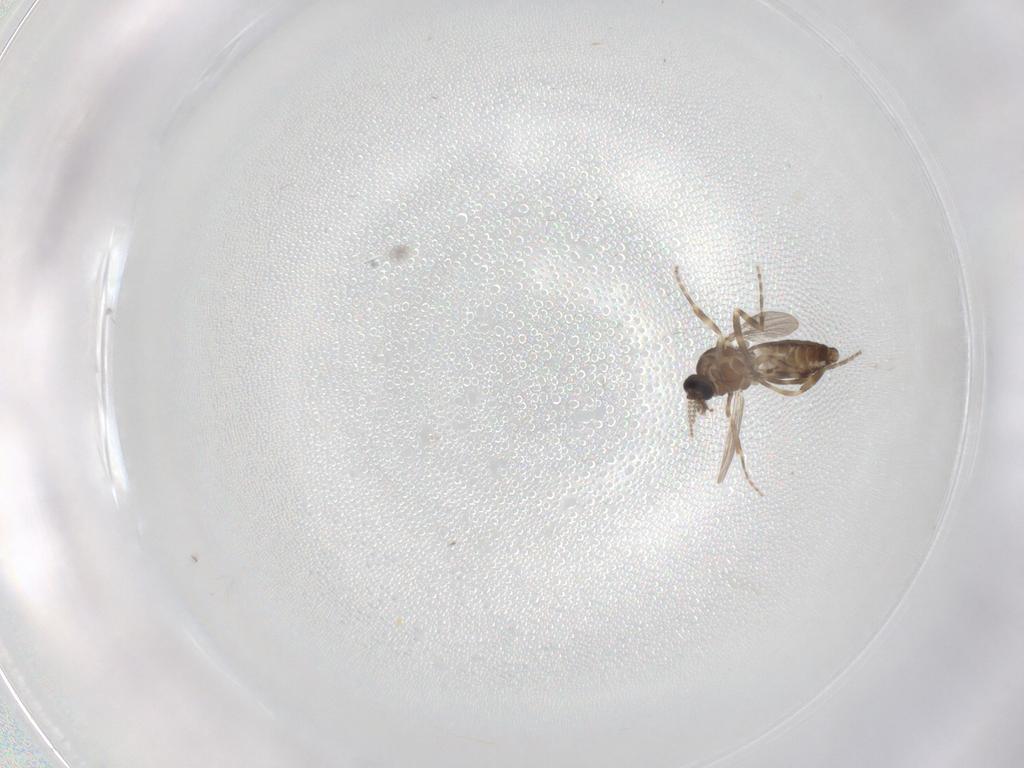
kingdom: Animalia
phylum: Arthropoda
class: Insecta
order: Diptera
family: Ceratopogonidae
